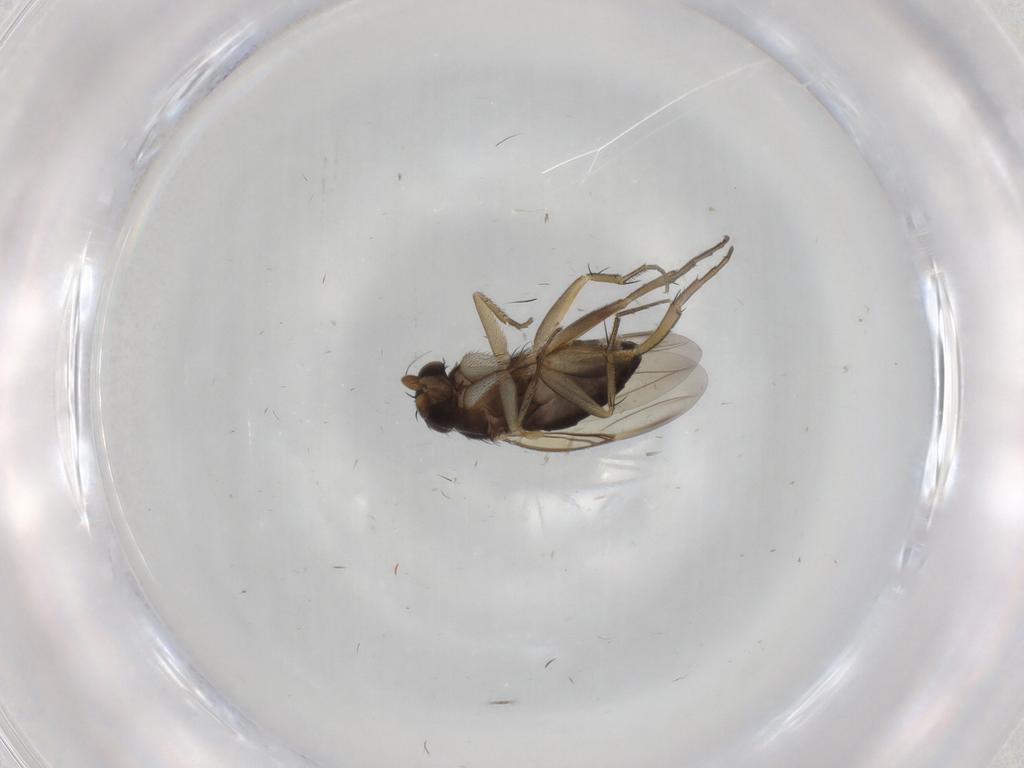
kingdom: Animalia
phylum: Arthropoda
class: Insecta
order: Diptera
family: Phoridae
